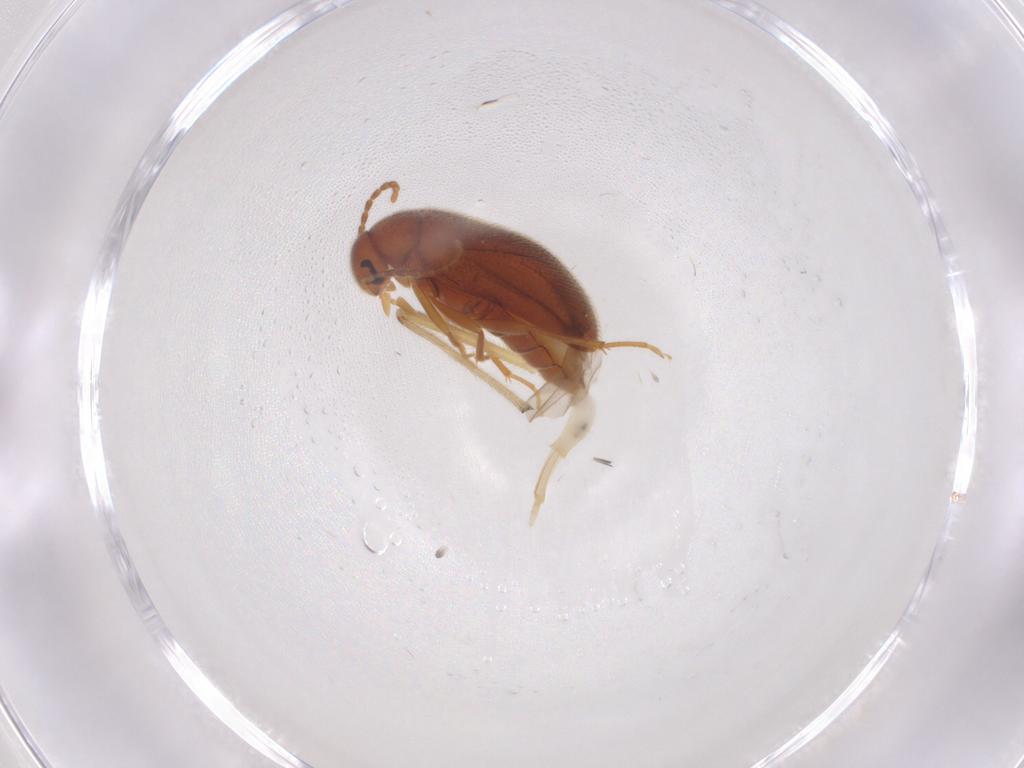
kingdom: Animalia
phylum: Arthropoda
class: Insecta
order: Coleoptera
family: Scraptiidae
